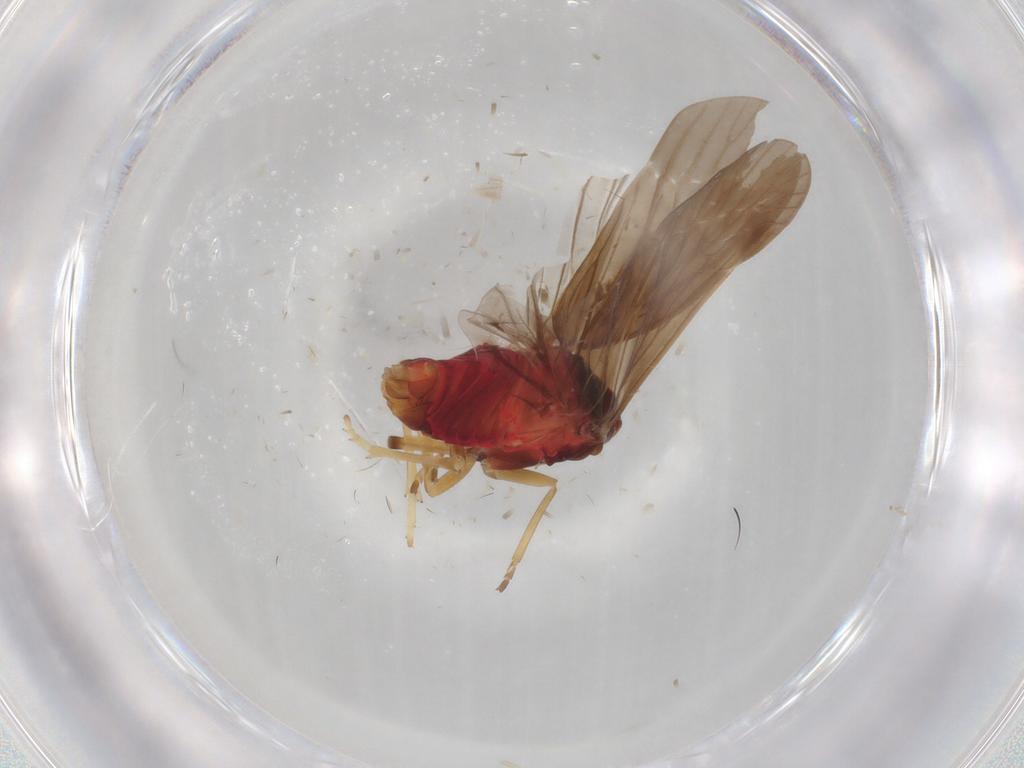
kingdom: Animalia
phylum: Arthropoda
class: Insecta
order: Hemiptera
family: Derbidae
